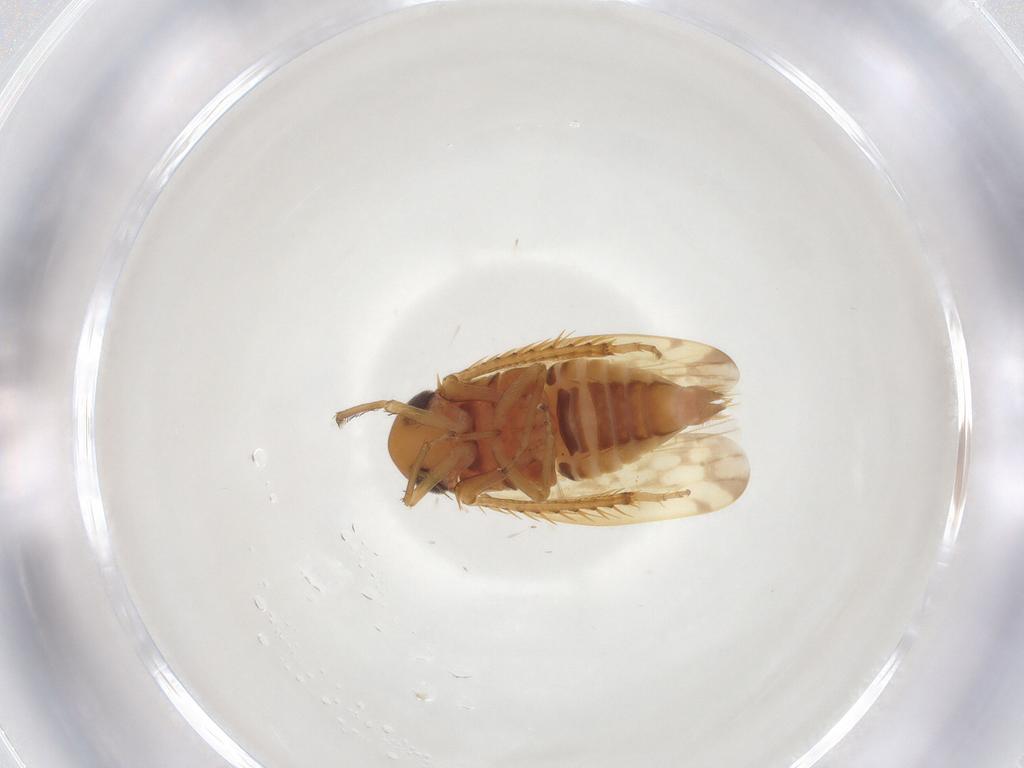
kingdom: Animalia
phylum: Arthropoda
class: Insecta
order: Hemiptera
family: Cicadellidae
